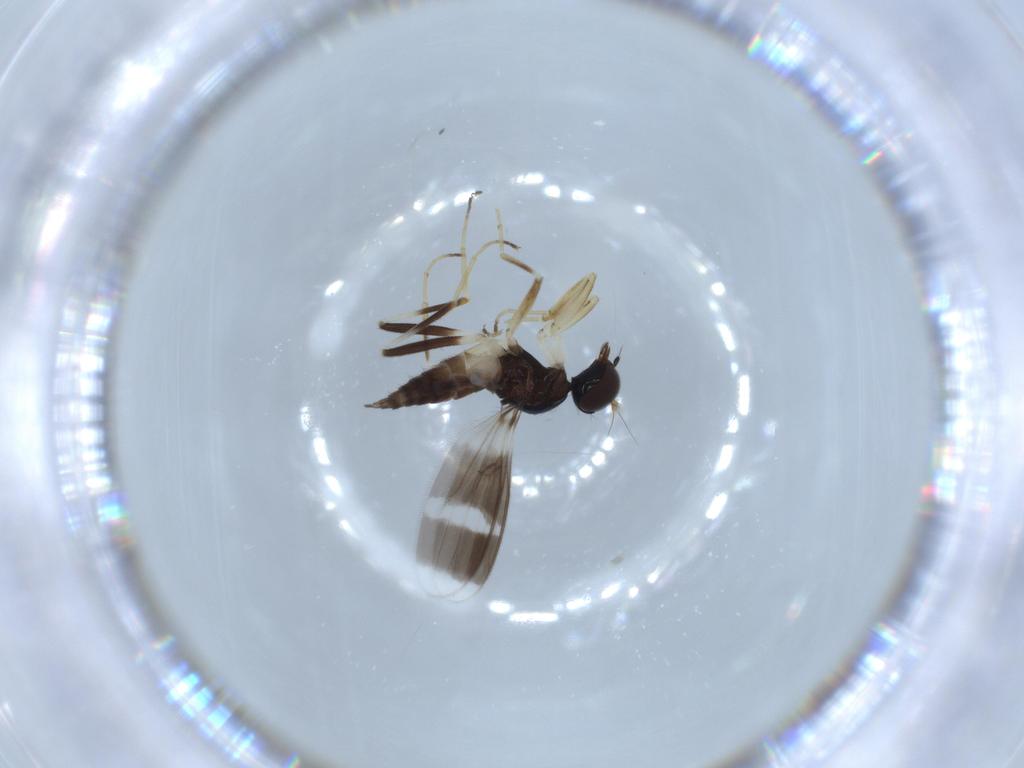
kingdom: Animalia
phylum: Arthropoda
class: Insecta
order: Diptera
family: Hybotidae
